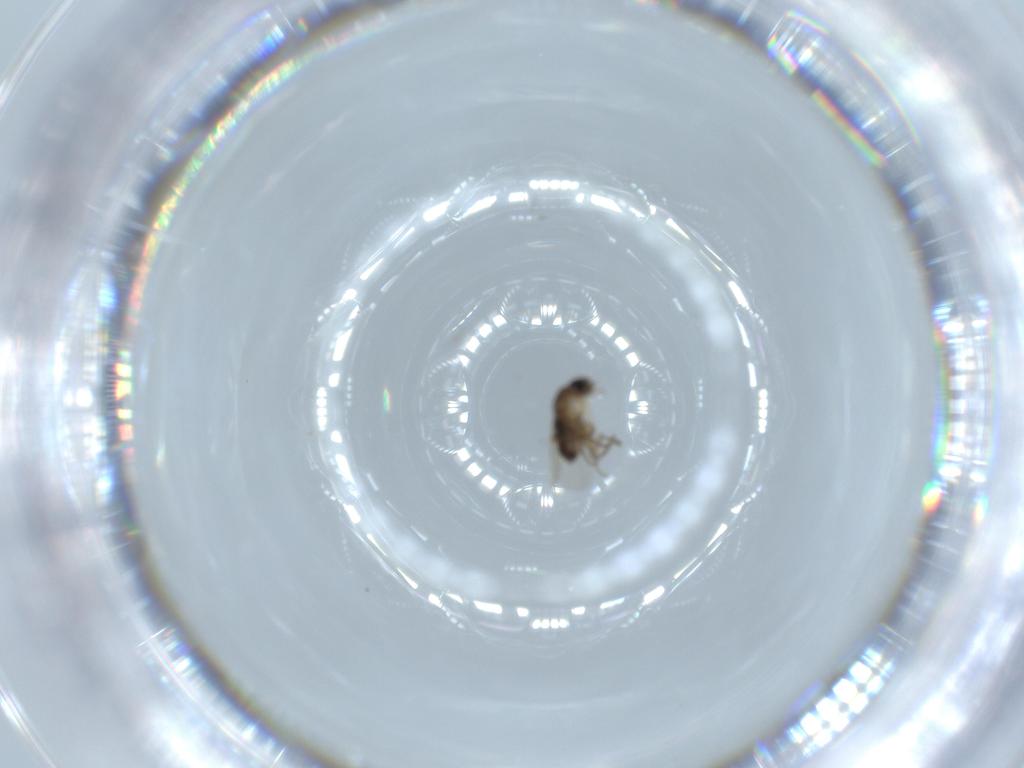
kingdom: Animalia
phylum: Arthropoda
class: Insecta
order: Diptera
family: Phoridae
